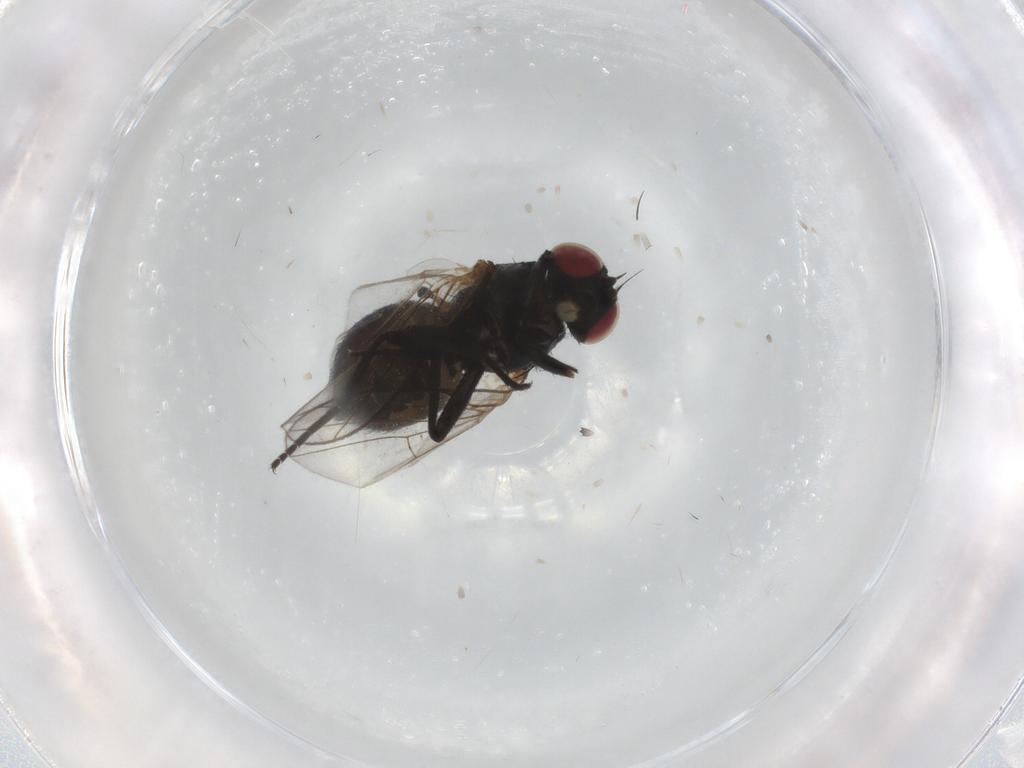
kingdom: Animalia
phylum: Arthropoda
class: Insecta
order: Diptera
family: Agromyzidae
